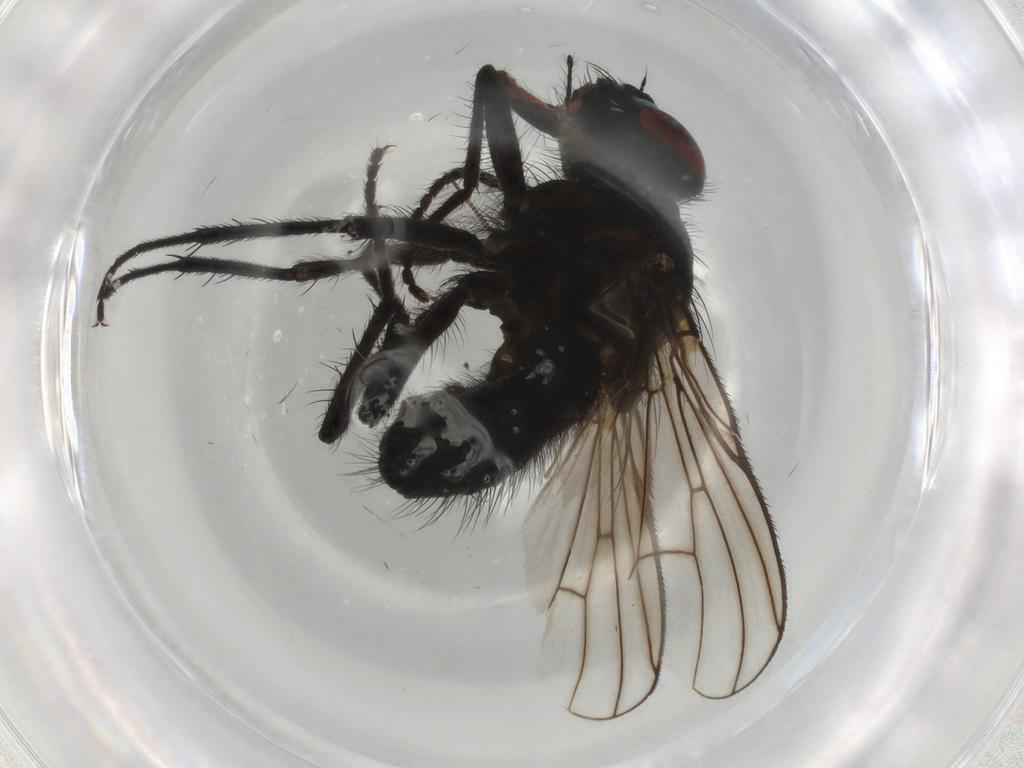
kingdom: Animalia
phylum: Arthropoda
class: Insecta
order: Diptera
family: Muscidae
